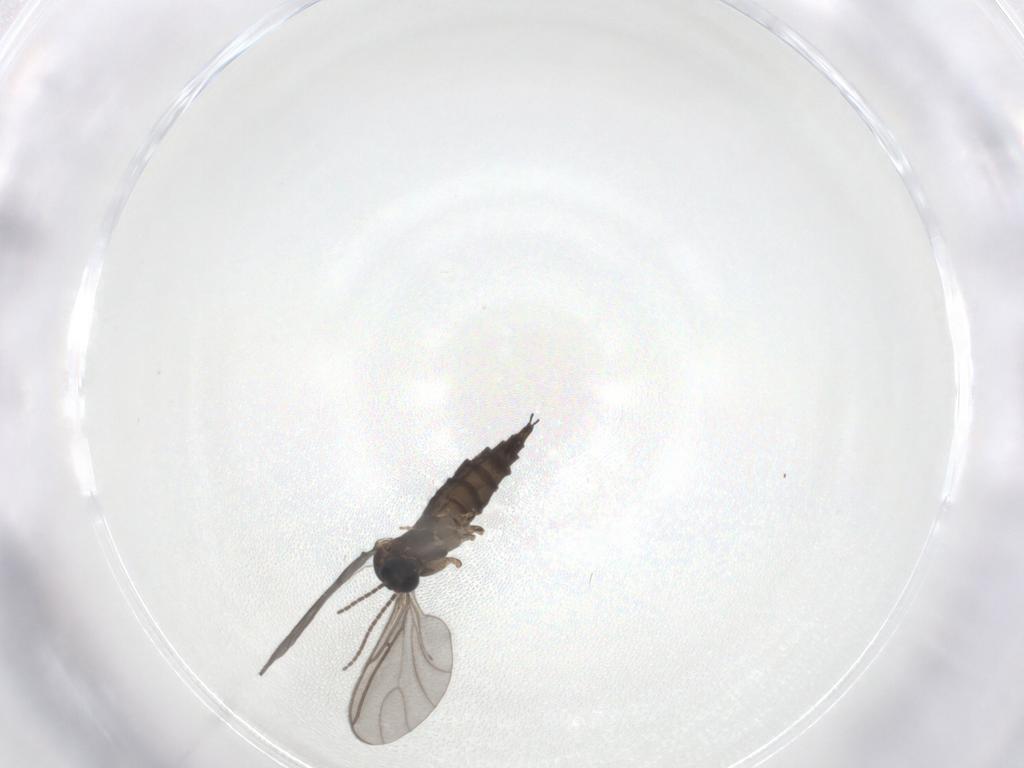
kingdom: Animalia
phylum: Arthropoda
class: Insecta
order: Diptera
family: Sciaridae
